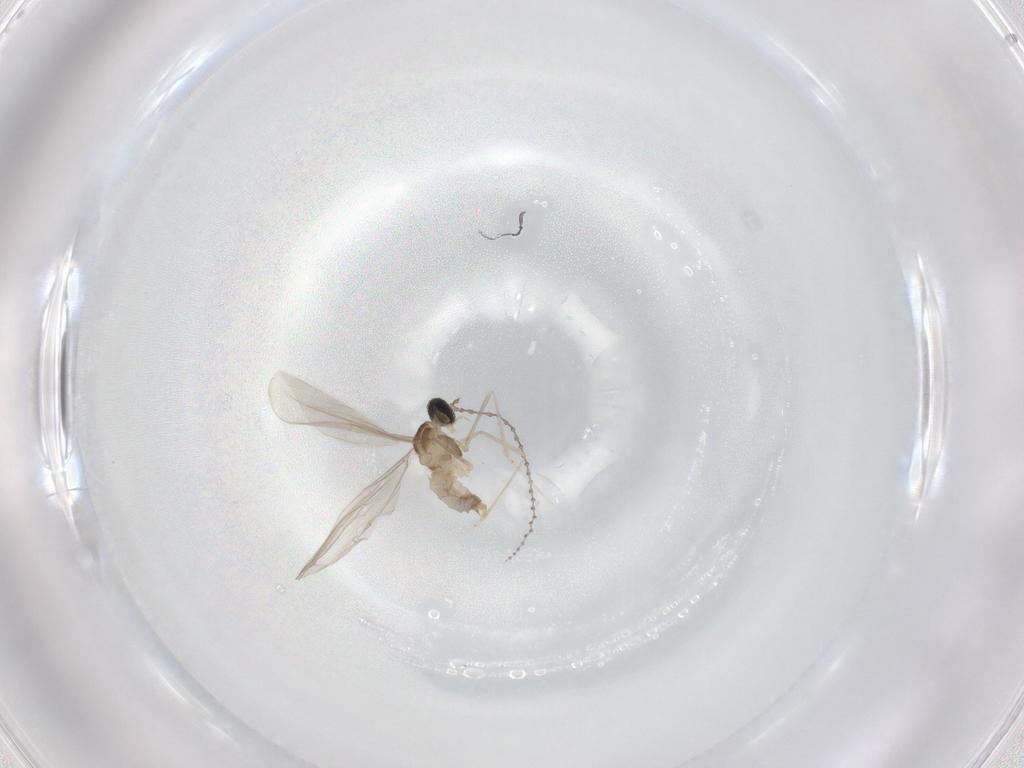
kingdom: Animalia
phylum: Arthropoda
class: Insecta
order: Diptera
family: Cecidomyiidae
